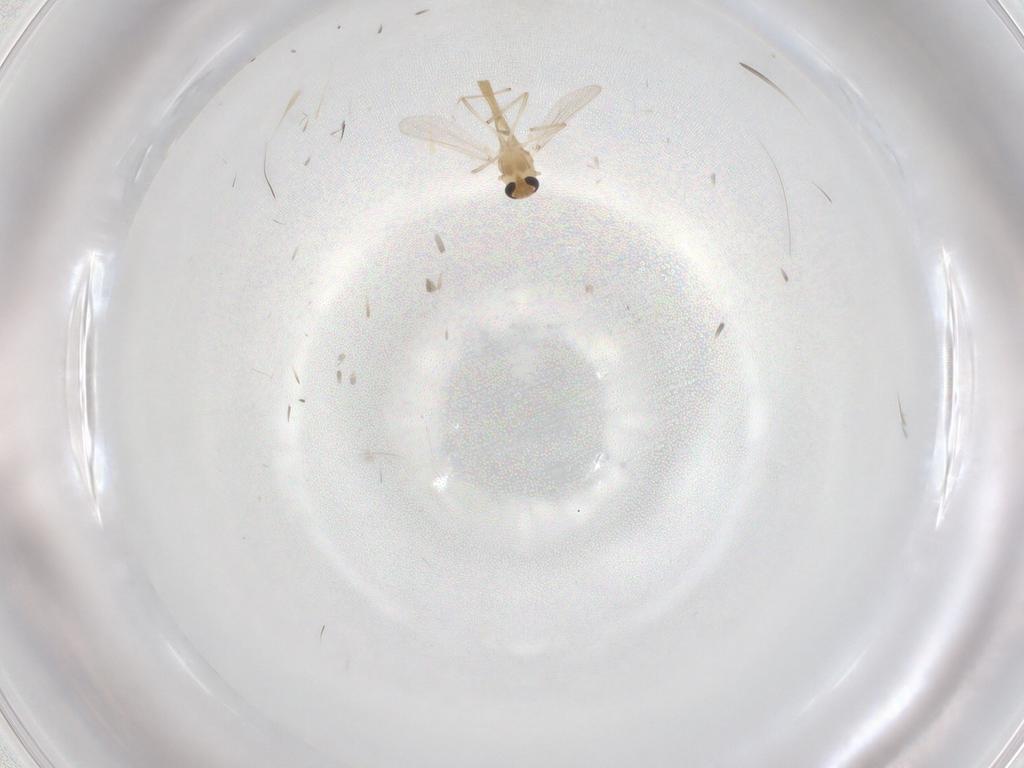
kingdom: Animalia
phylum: Arthropoda
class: Insecta
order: Diptera
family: Chironomidae
